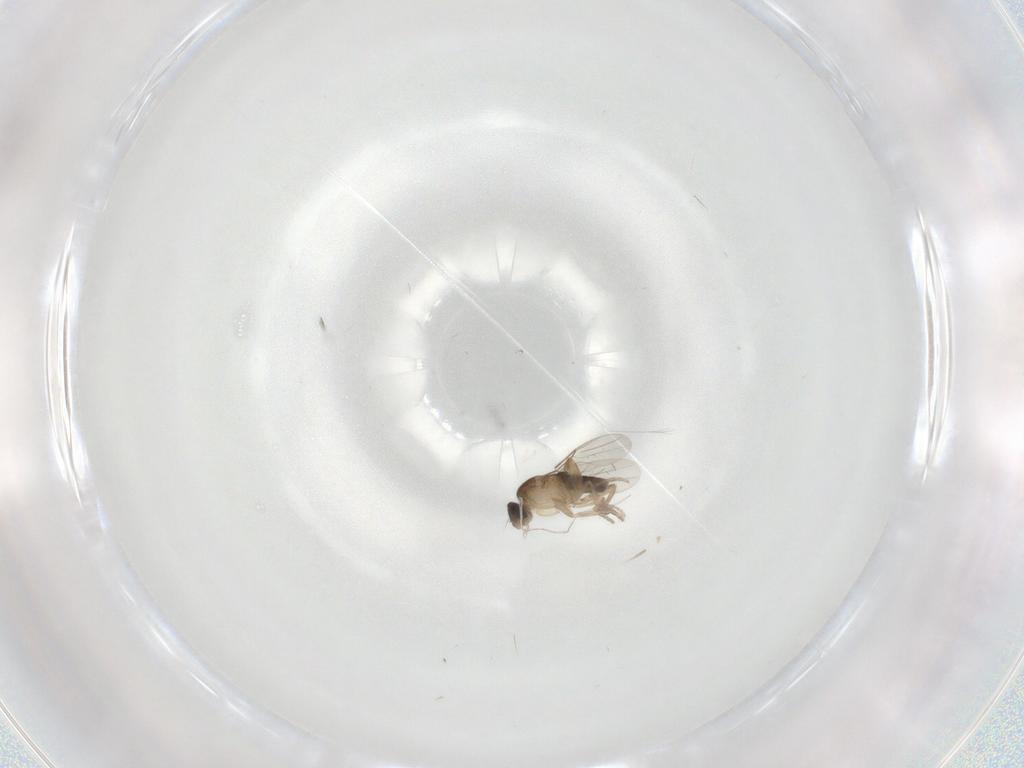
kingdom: Animalia
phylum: Arthropoda
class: Insecta
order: Diptera
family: Phoridae
